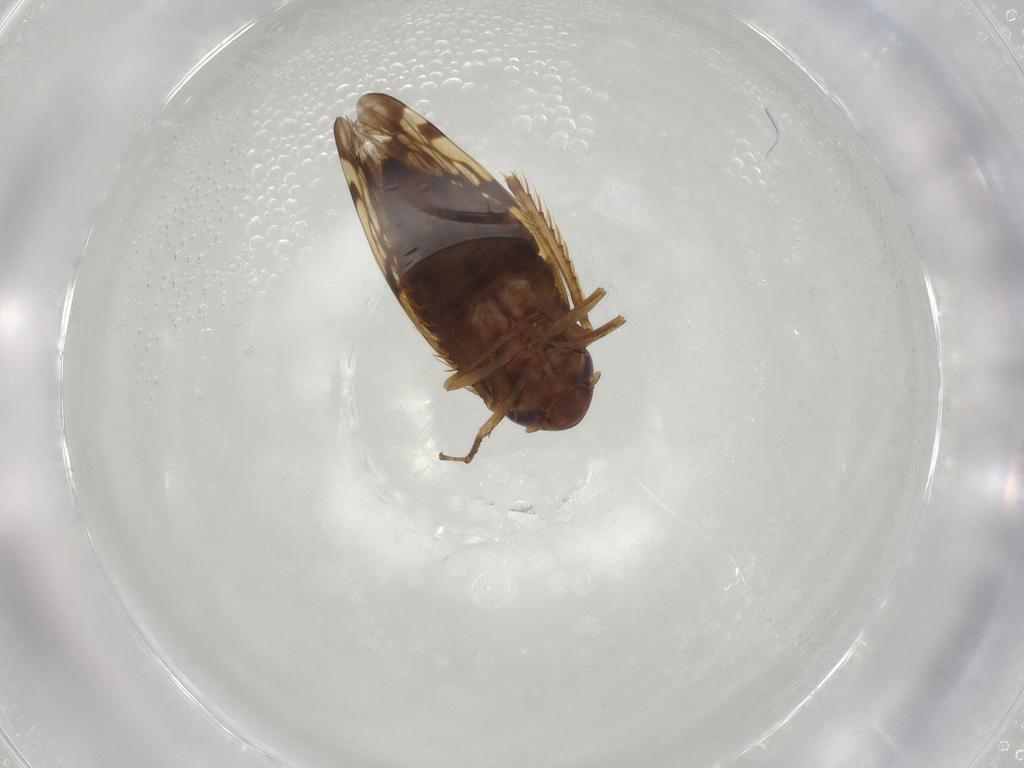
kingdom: Animalia
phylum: Arthropoda
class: Insecta
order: Hemiptera
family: Cicadellidae
